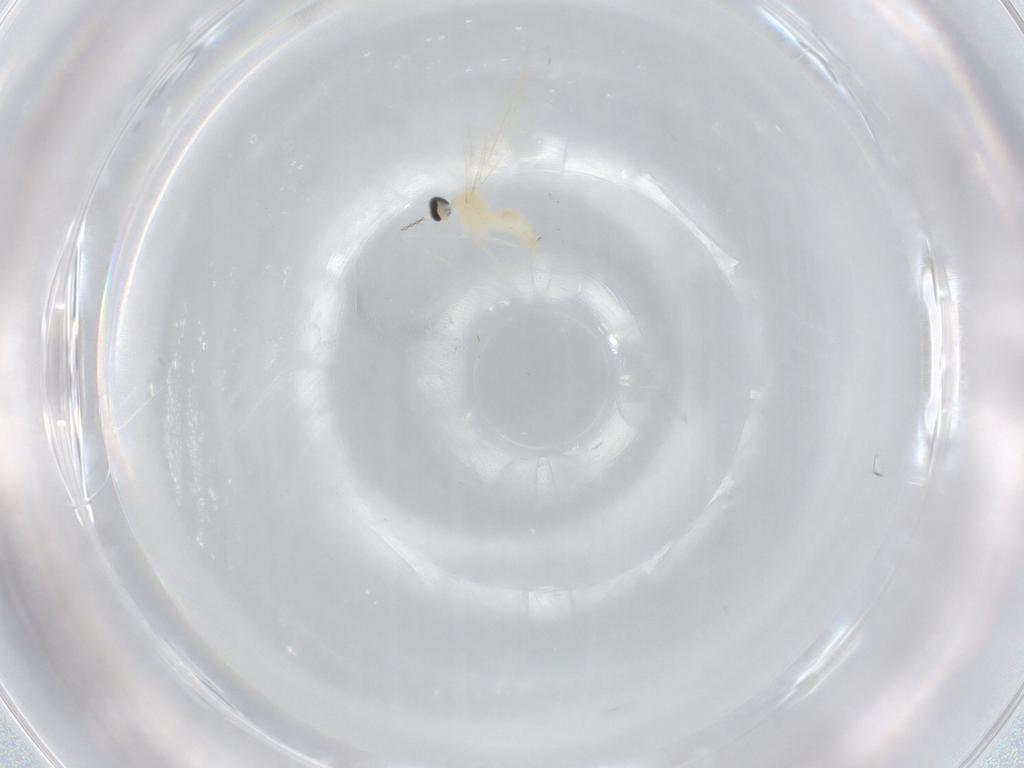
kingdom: Animalia
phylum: Arthropoda
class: Insecta
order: Diptera
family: Cecidomyiidae
